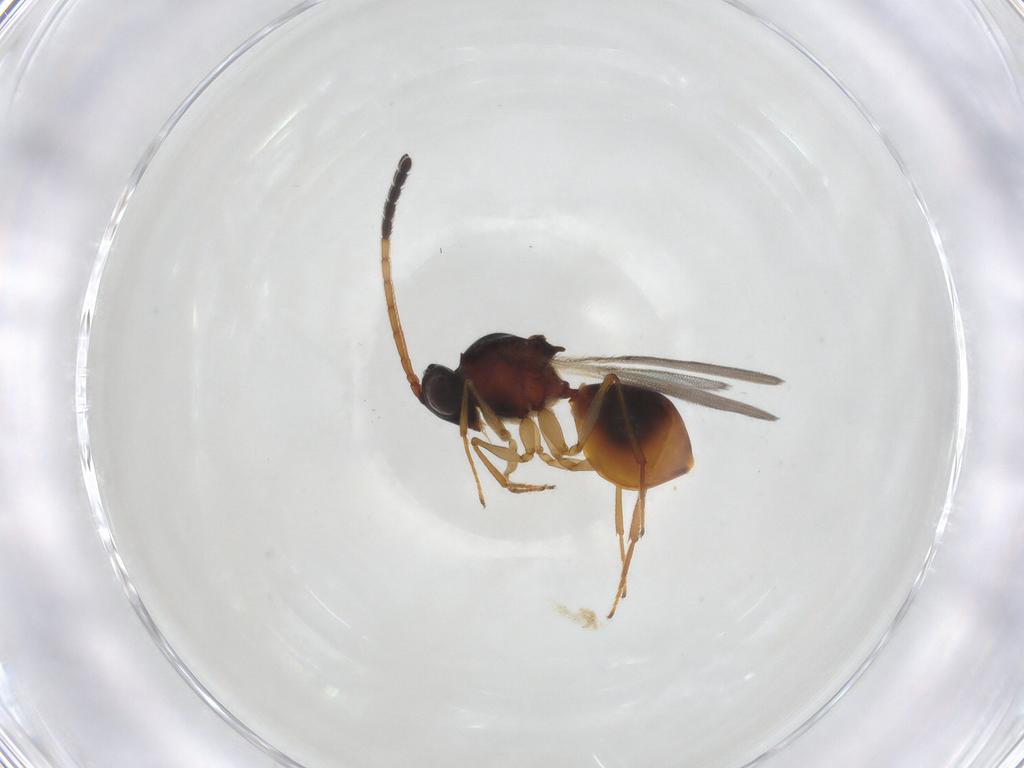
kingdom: Animalia
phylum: Arthropoda
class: Insecta
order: Hymenoptera
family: Figitidae
